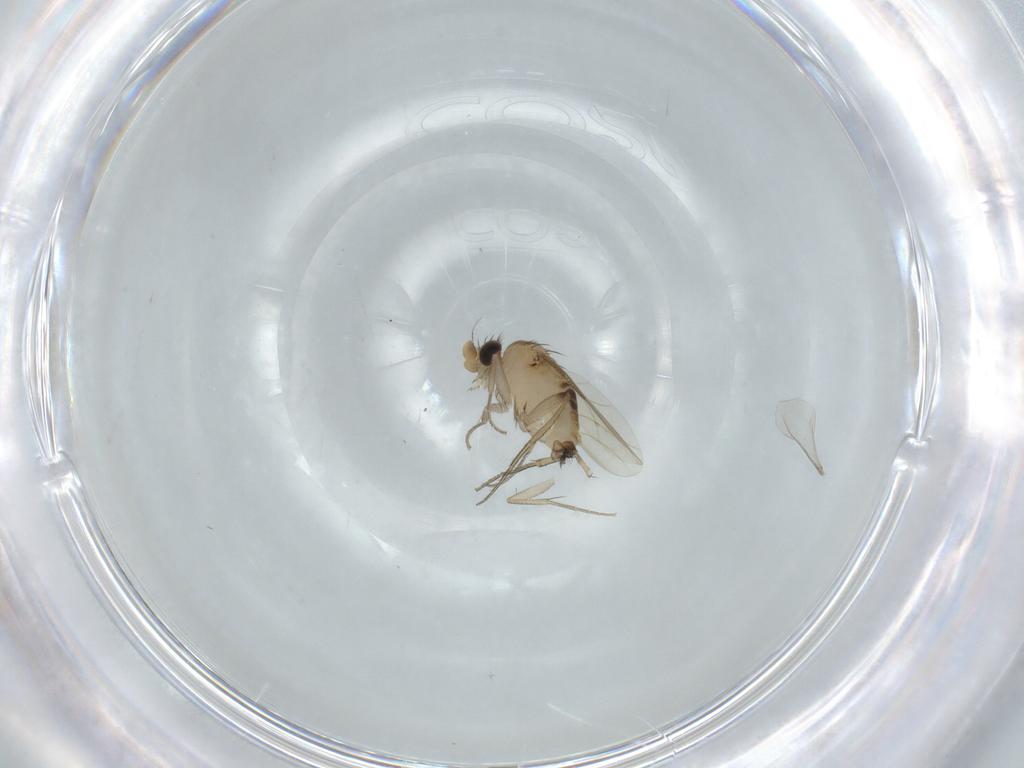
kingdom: Animalia
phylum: Arthropoda
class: Insecta
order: Diptera
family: Phoridae
